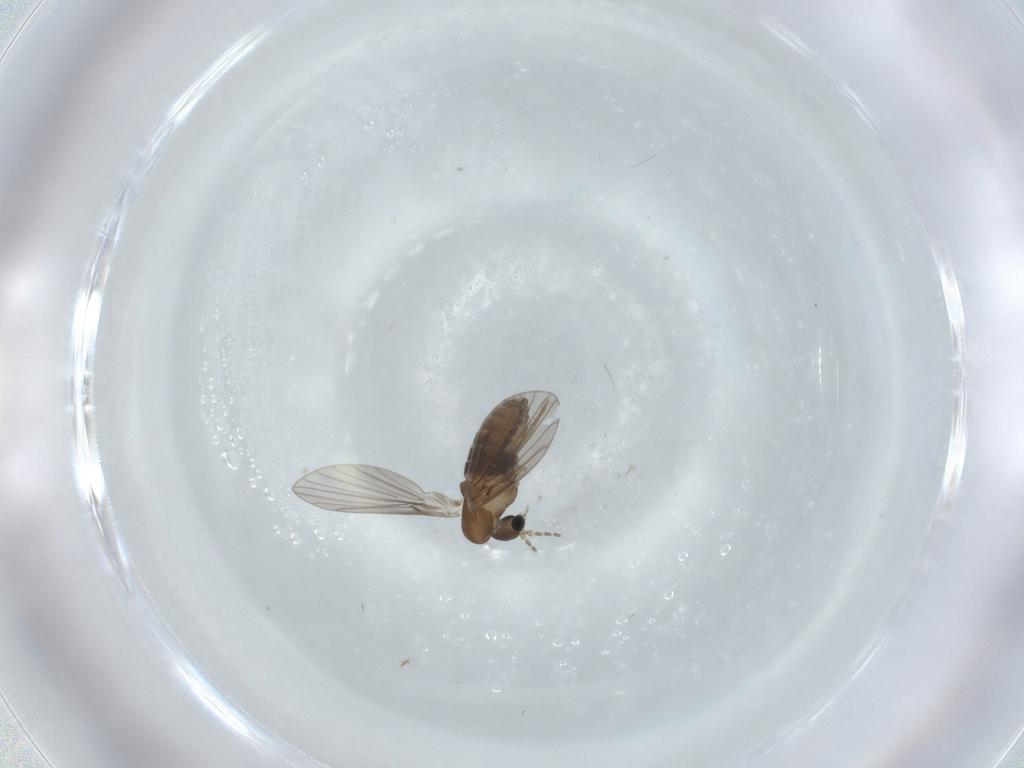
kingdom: Animalia
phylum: Arthropoda
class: Insecta
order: Diptera
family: Psychodidae
